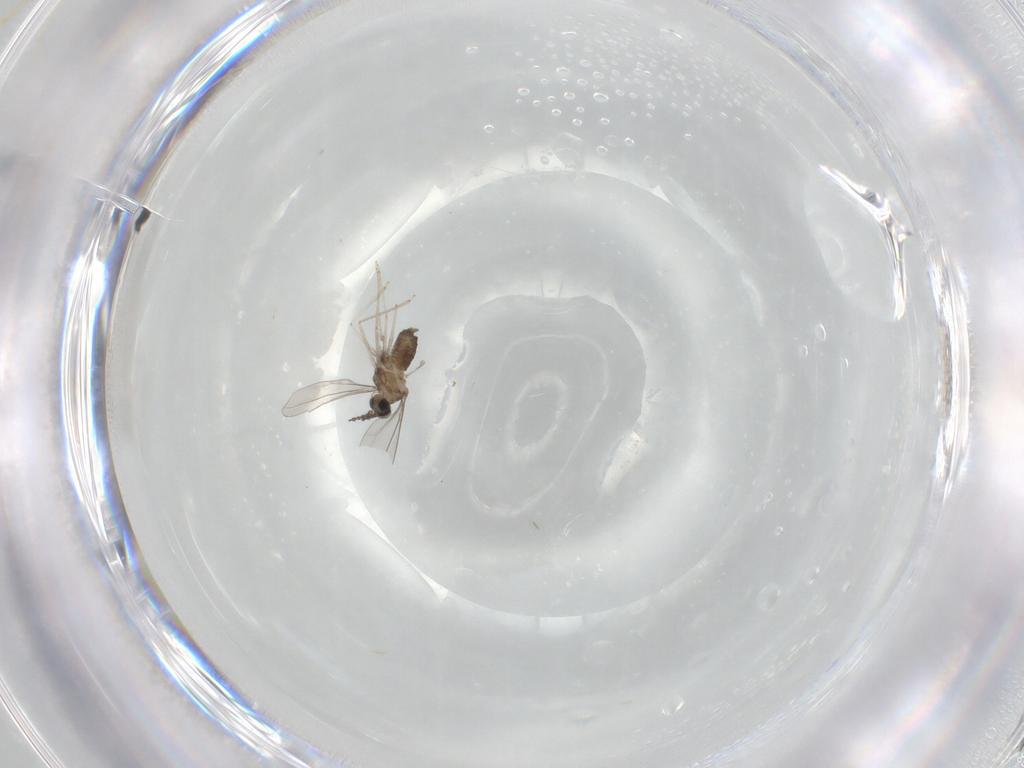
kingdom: Animalia
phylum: Arthropoda
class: Insecta
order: Diptera
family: Cecidomyiidae
